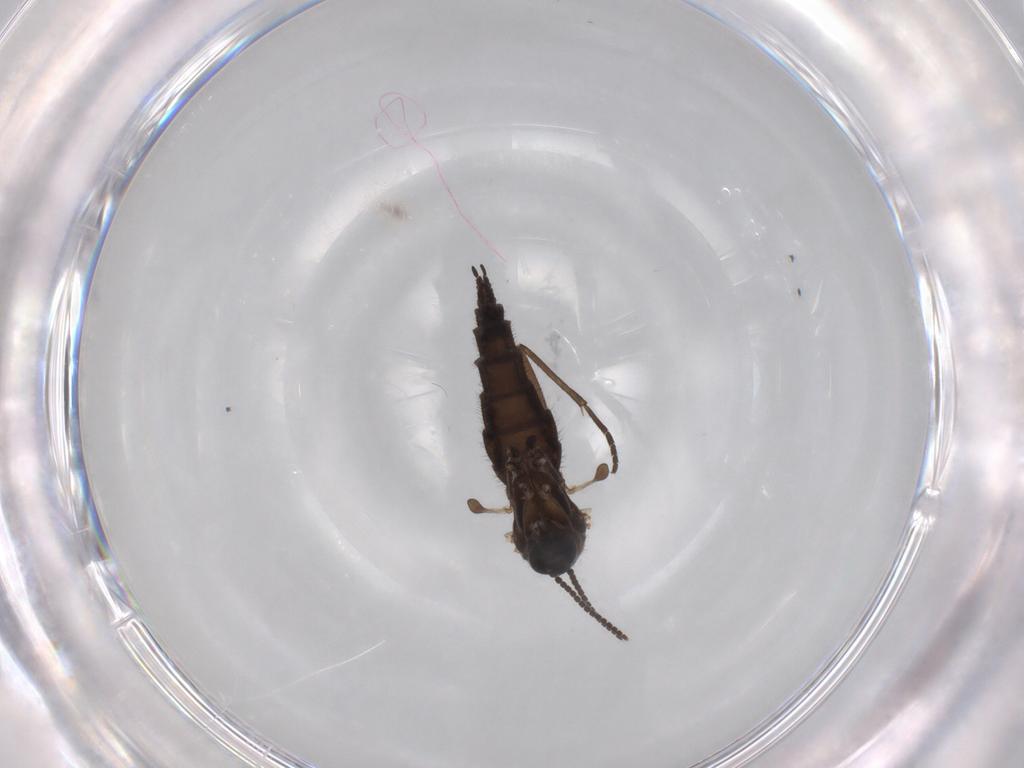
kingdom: Animalia
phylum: Arthropoda
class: Insecta
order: Diptera
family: Sciaridae
